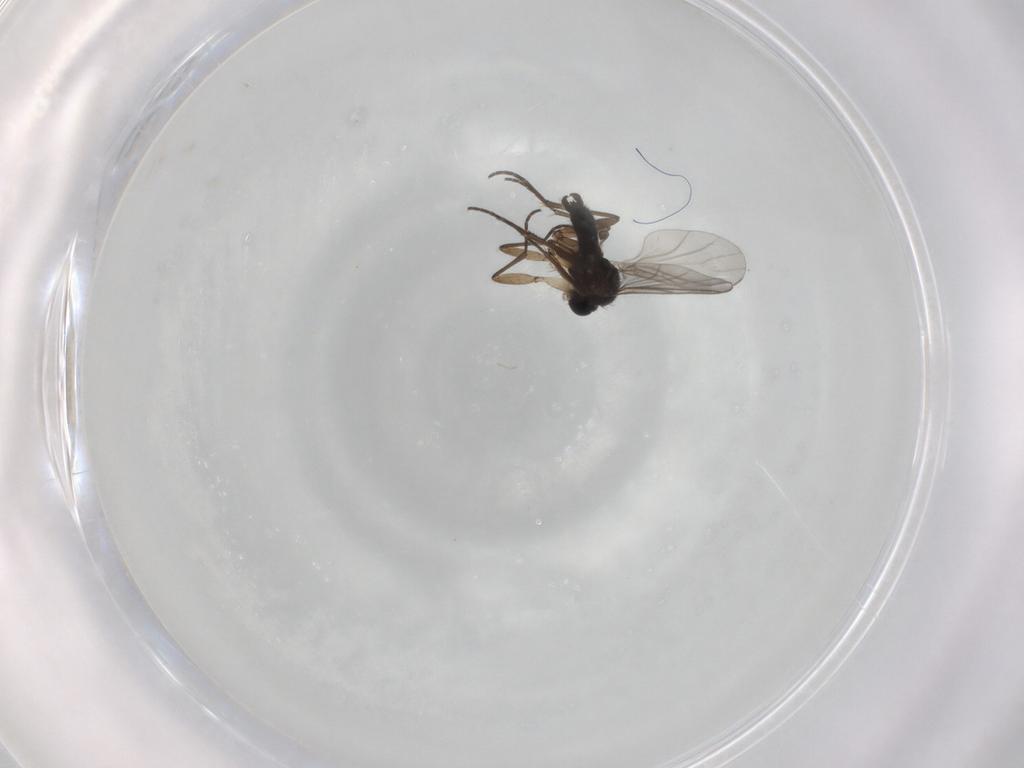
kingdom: Animalia
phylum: Arthropoda
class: Insecta
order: Diptera
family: Sciaridae
